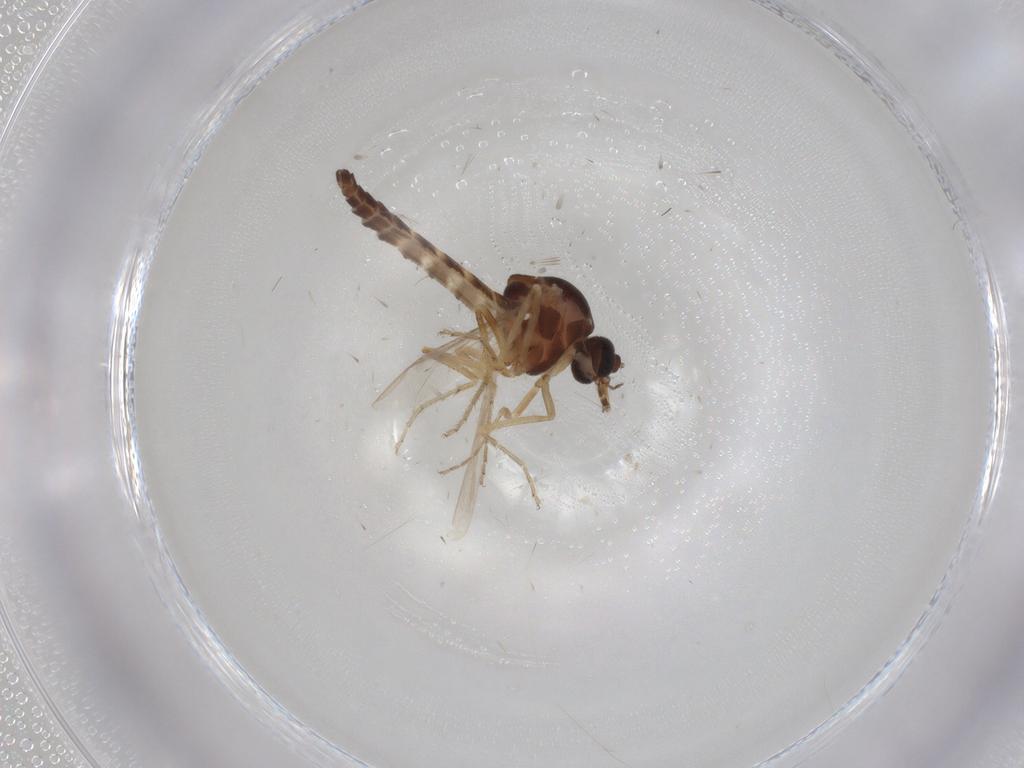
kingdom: Animalia
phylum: Arthropoda
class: Insecta
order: Diptera
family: Ceratopogonidae
